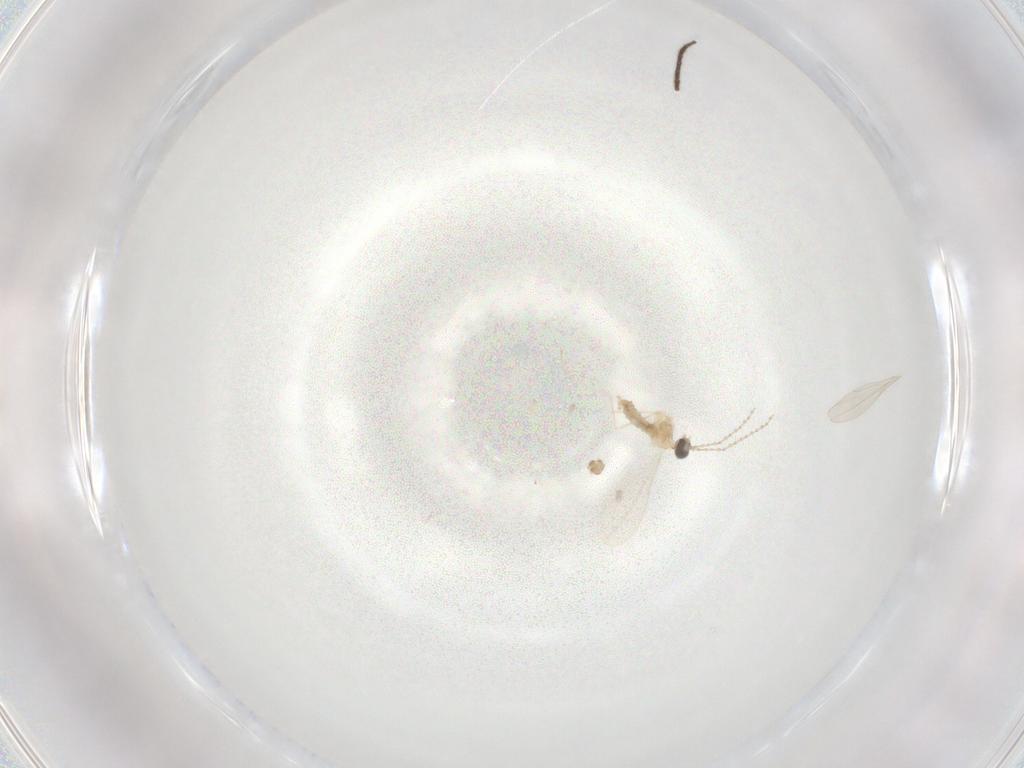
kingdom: Animalia
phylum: Arthropoda
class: Insecta
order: Diptera
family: Sciaridae
